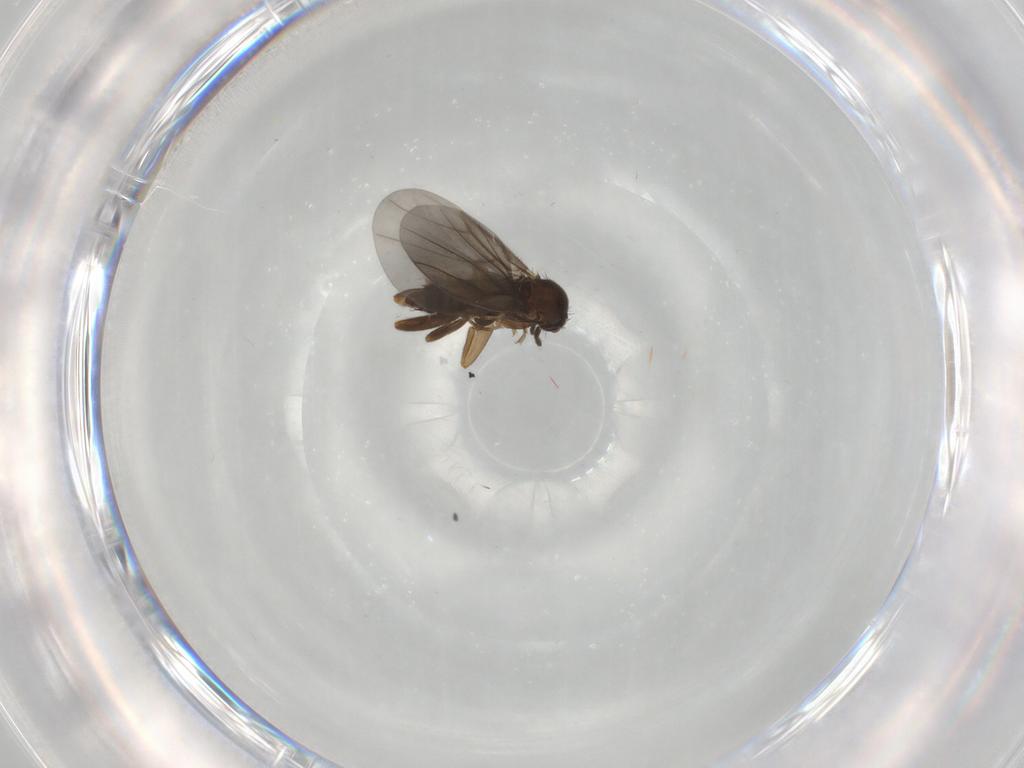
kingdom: Animalia
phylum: Arthropoda
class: Insecta
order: Diptera
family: Phoridae
